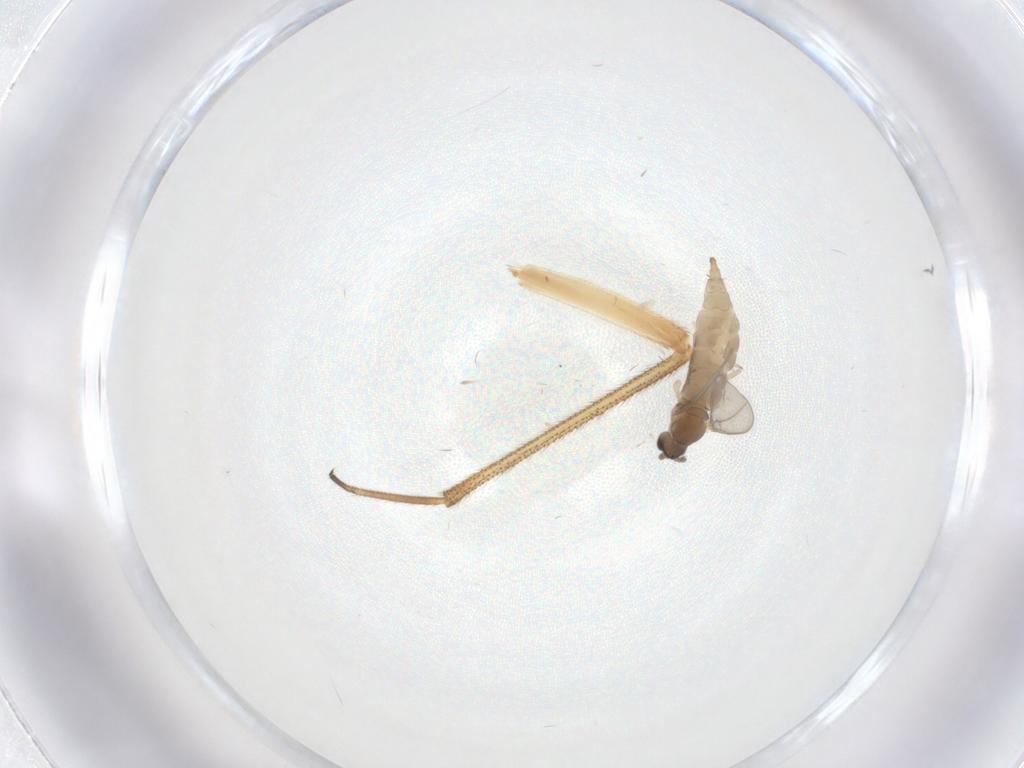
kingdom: Animalia
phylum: Arthropoda
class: Insecta
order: Diptera
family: Cecidomyiidae
